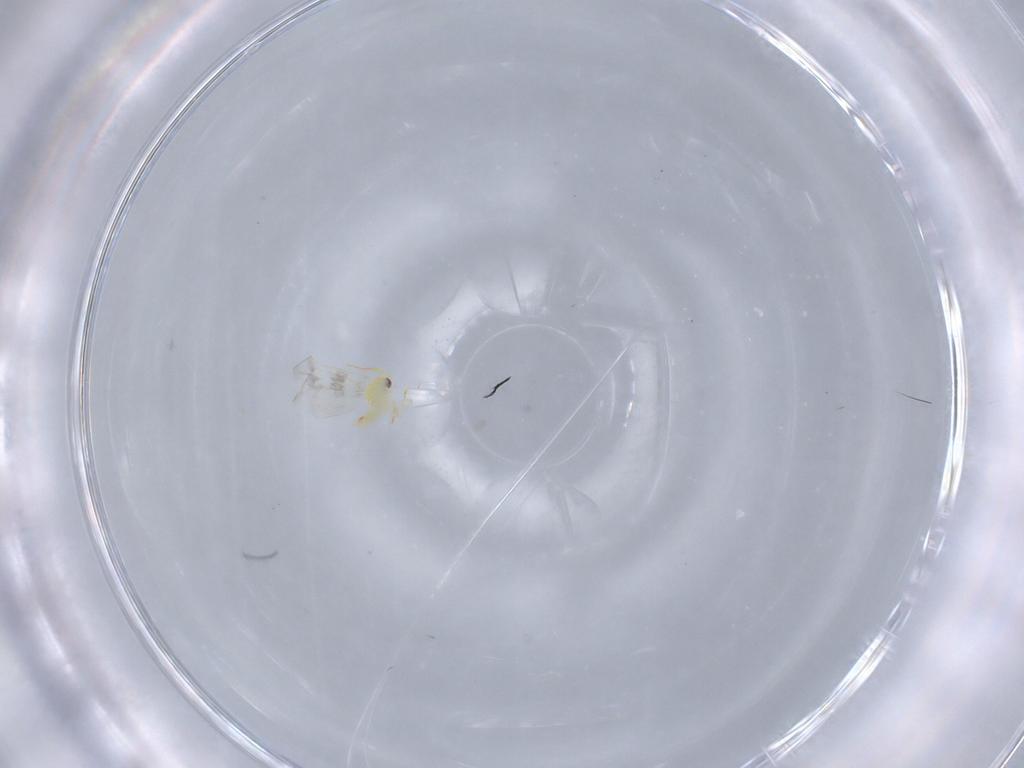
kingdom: Animalia
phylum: Arthropoda
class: Insecta
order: Hemiptera
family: Aleyrodidae
